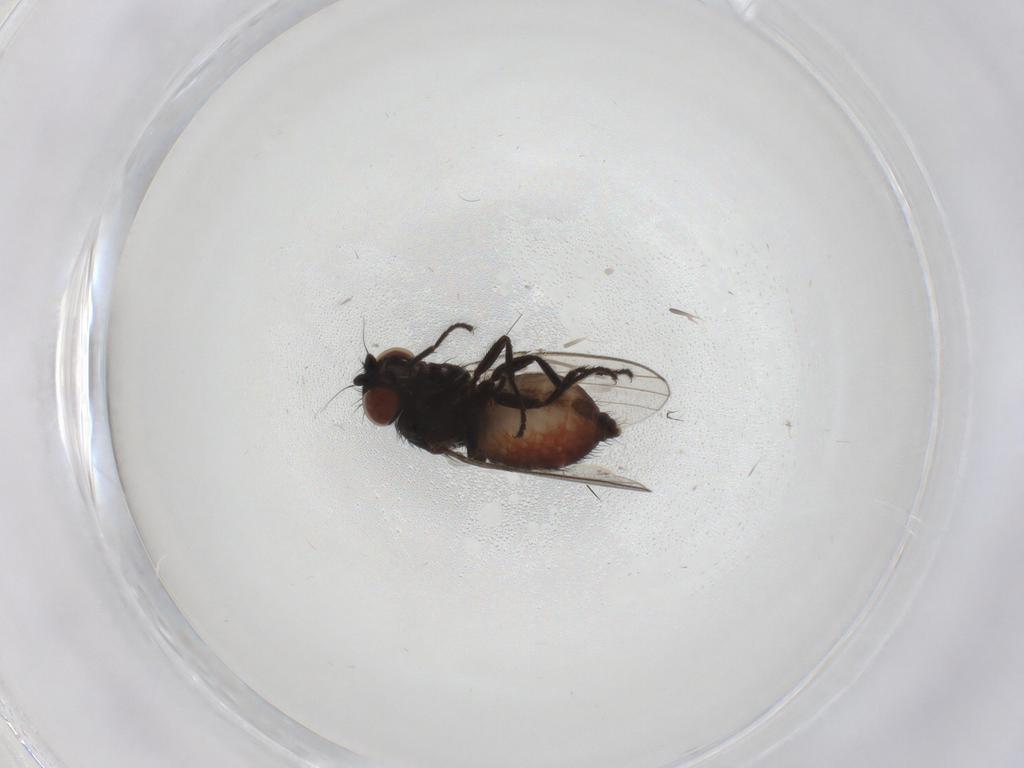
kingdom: Animalia
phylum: Arthropoda
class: Insecta
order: Diptera
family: Milichiidae
